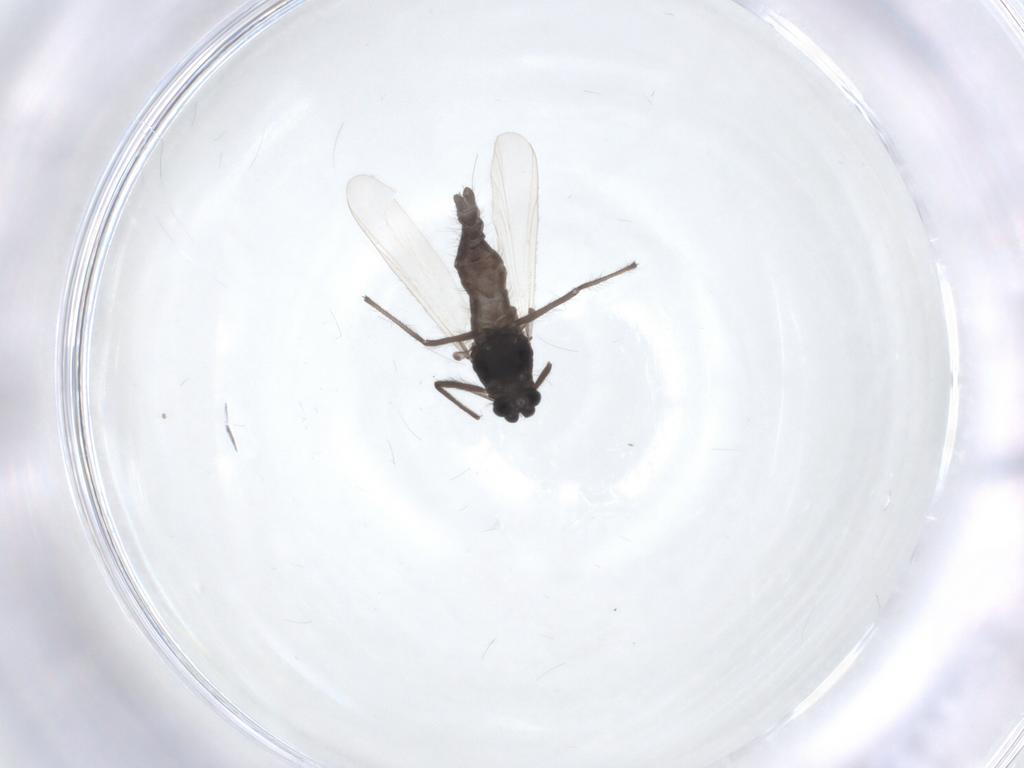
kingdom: Animalia
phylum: Arthropoda
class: Insecta
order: Diptera
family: Chironomidae
